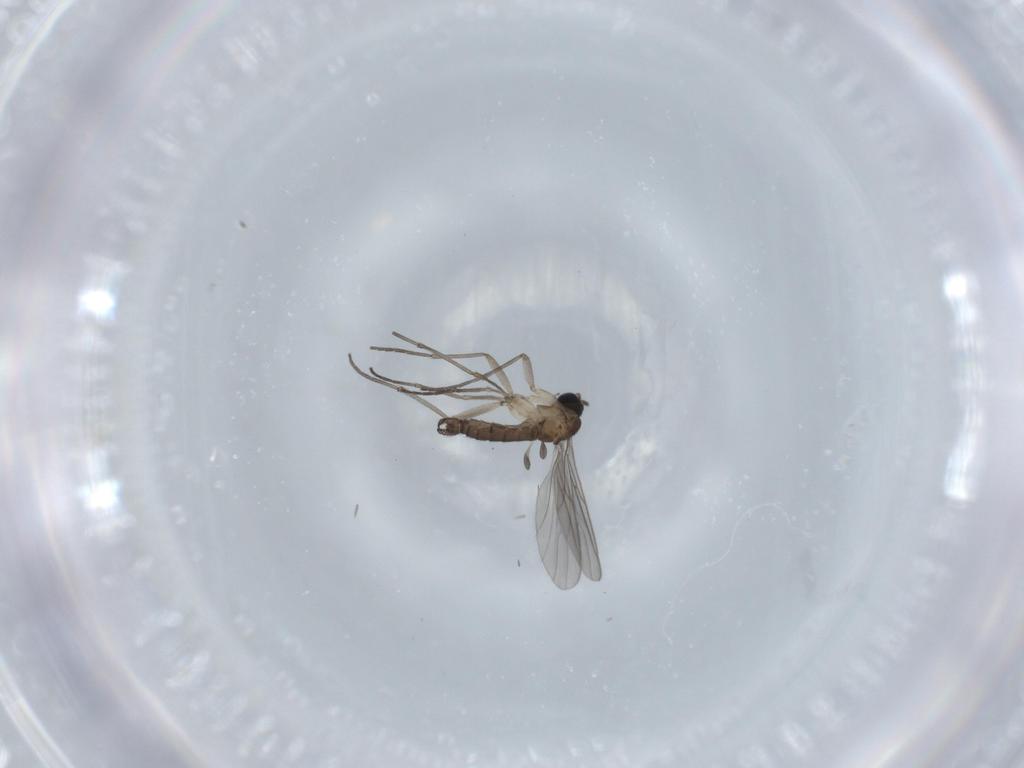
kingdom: Animalia
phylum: Arthropoda
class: Insecta
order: Diptera
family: Sciaridae
